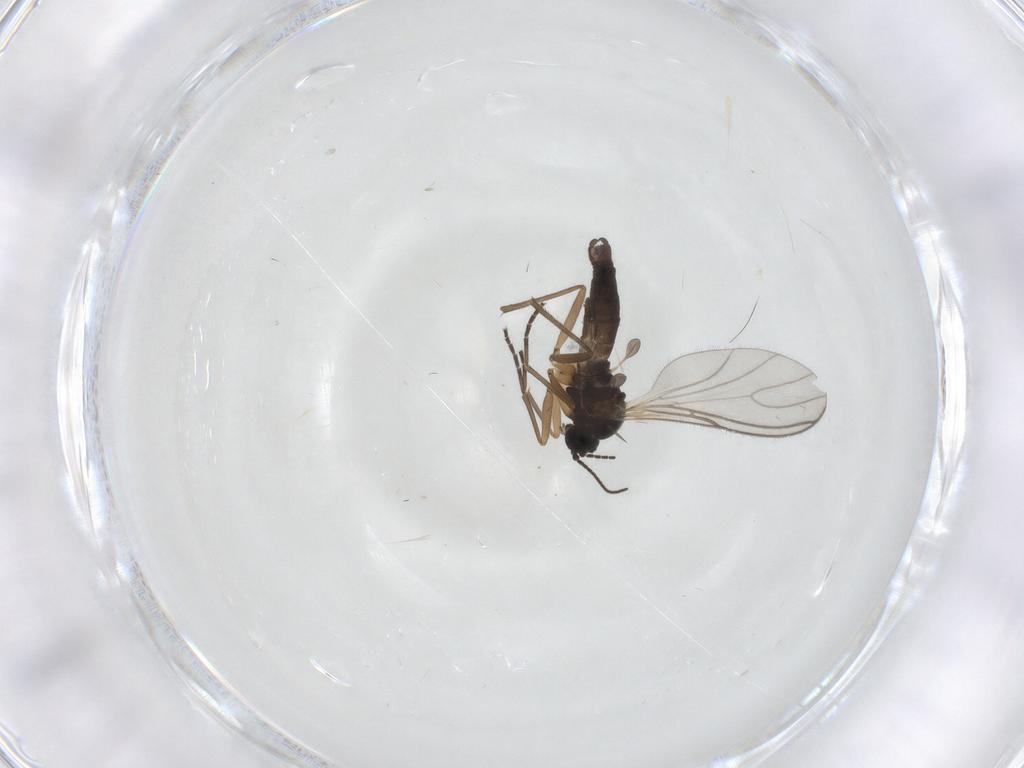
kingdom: Animalia
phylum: Arthropoda
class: Insecta
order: Diptera
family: Sciaridae
